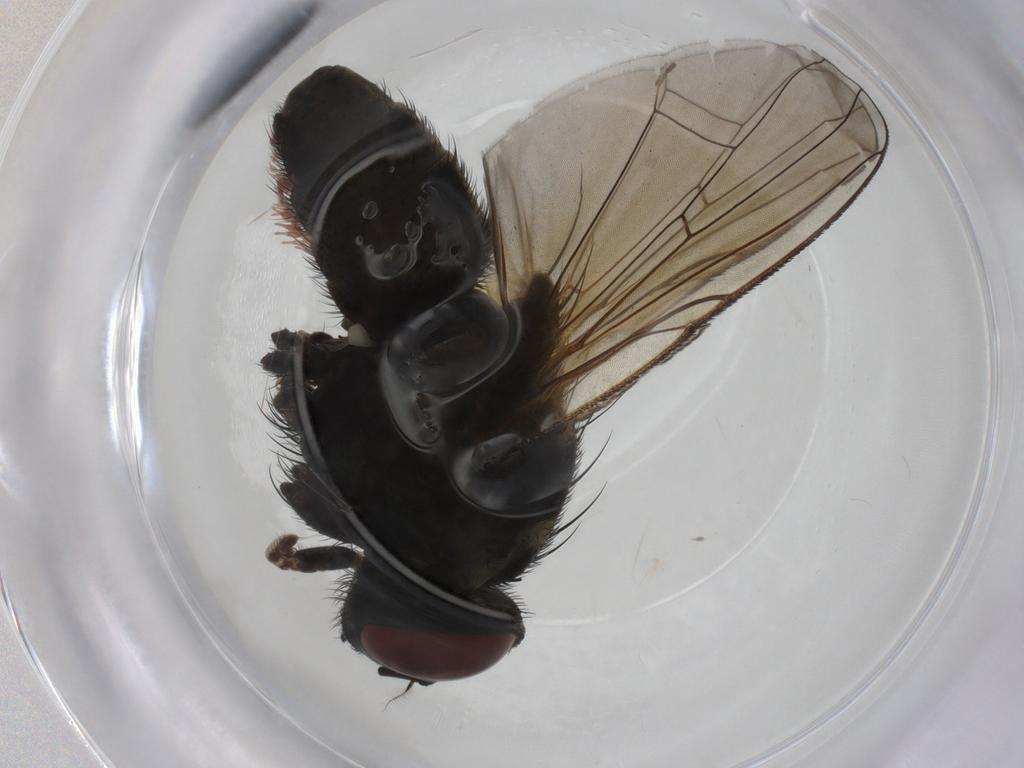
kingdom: Animalia
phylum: Arthropoda
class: Insecta
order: Diptera
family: Muscidae
